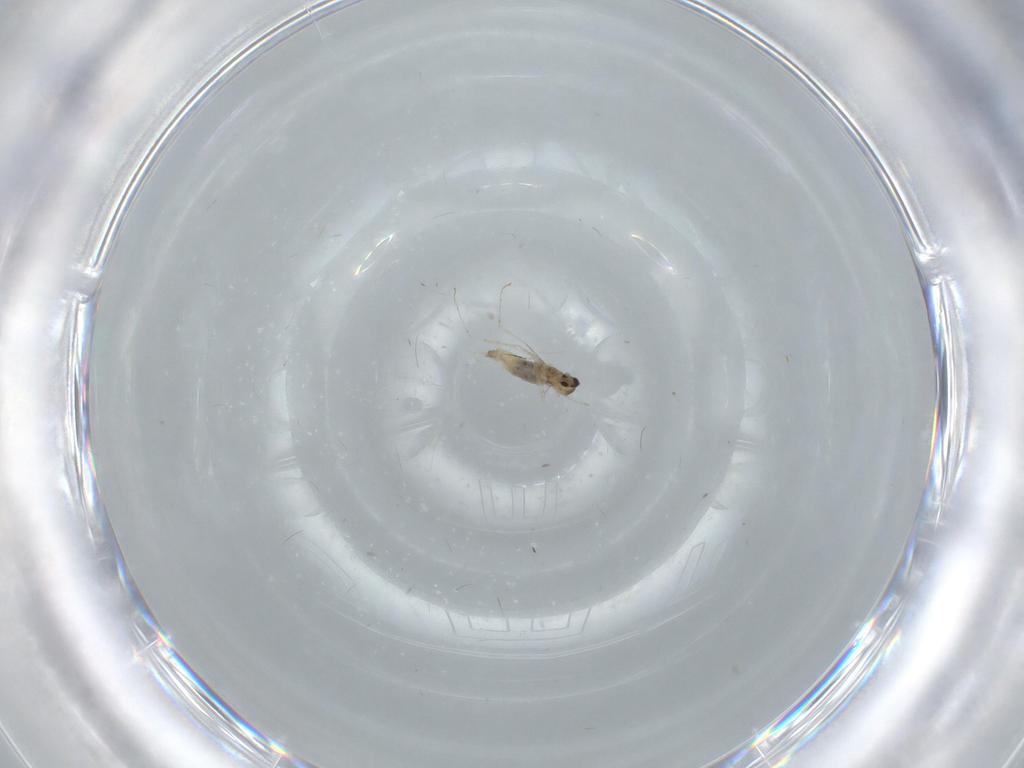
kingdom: Animalia
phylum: Arthropoda
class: Insecta
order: Diptera
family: Cecidomyiidae
